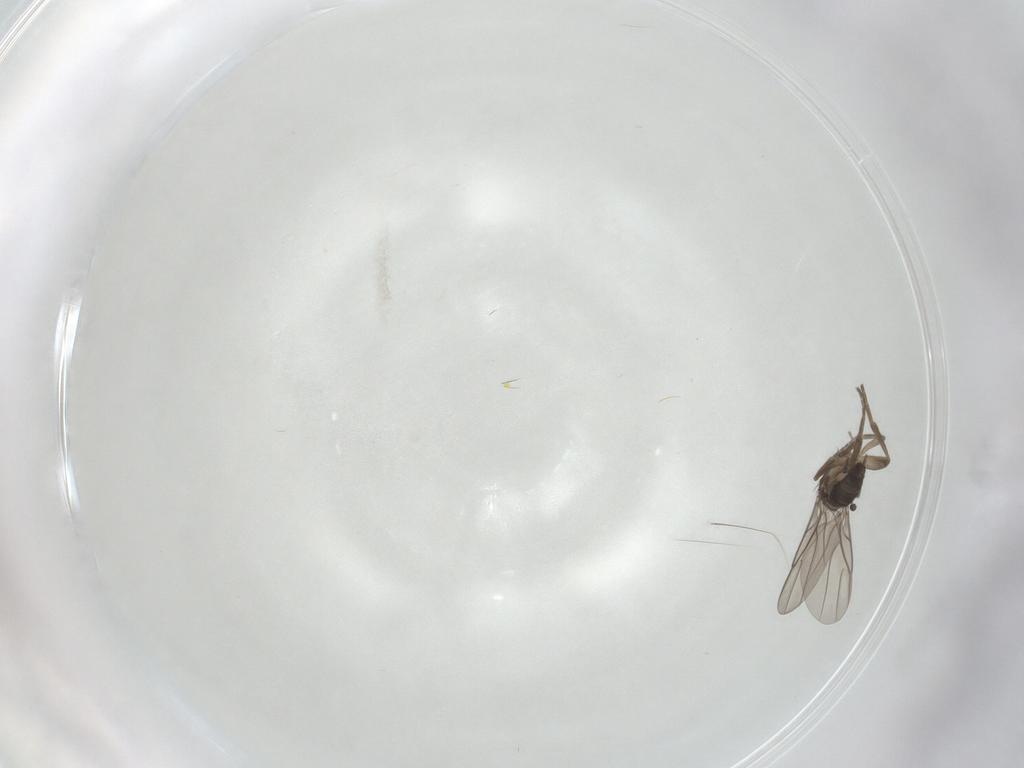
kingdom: Animalia
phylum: Arthropoda
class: Insecta
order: Diptera
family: Phoridae
